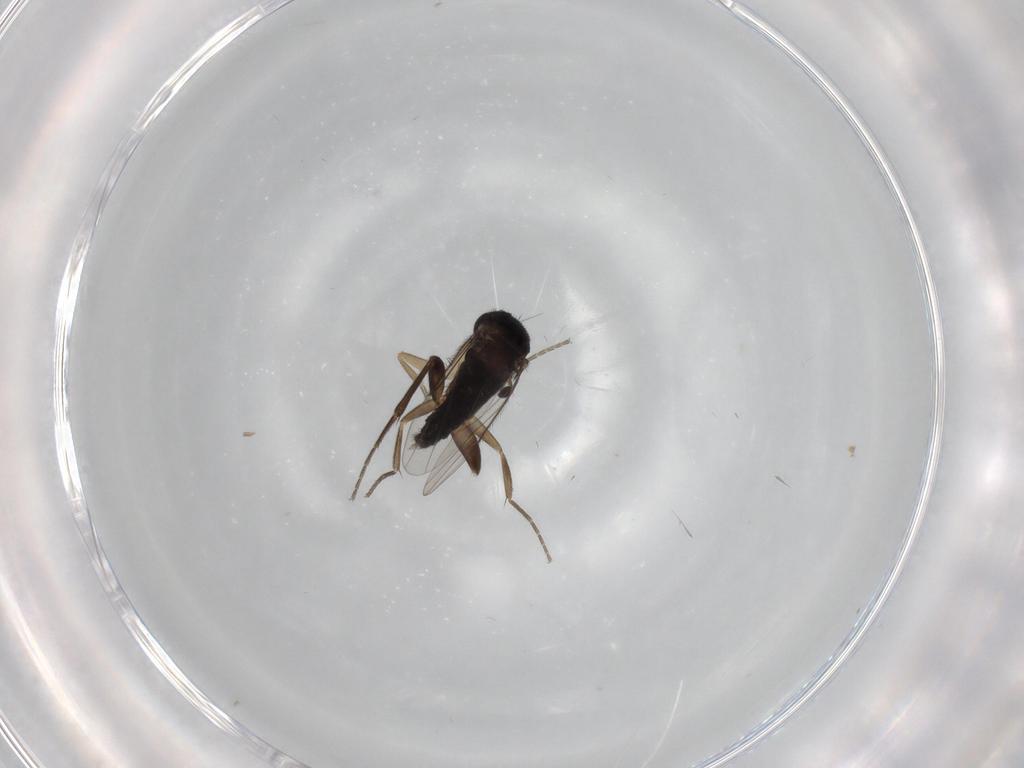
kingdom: Animalia
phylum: Arthropoda
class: Insecta
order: Diptera
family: Phoridae
